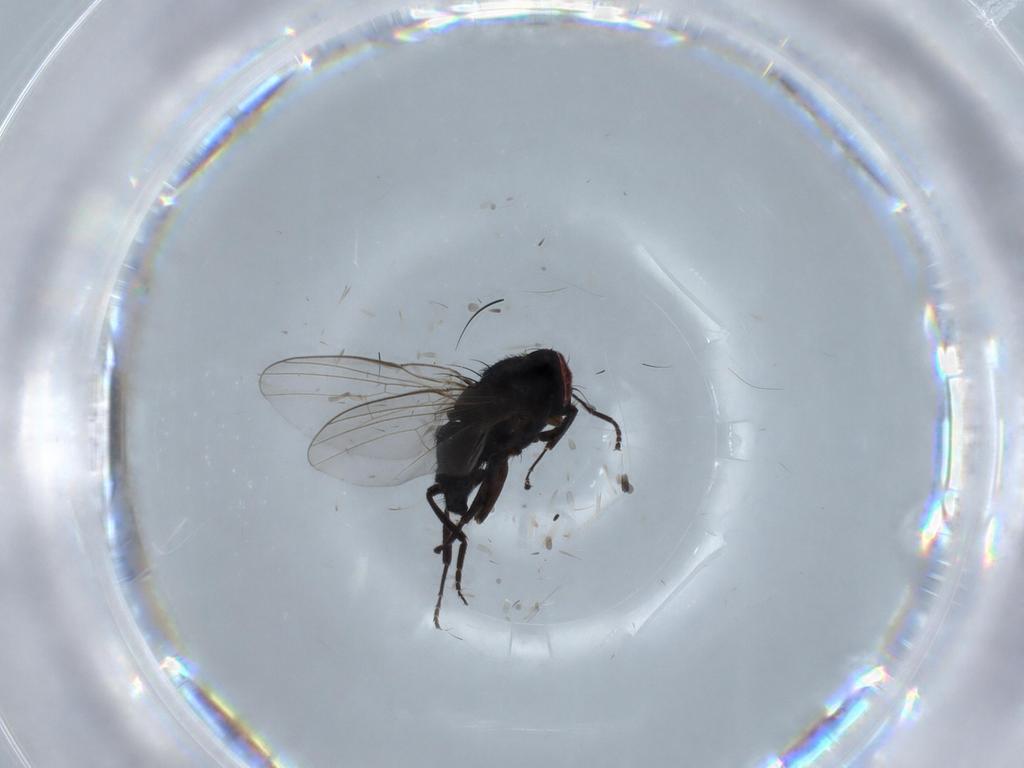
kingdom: Animalia
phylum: Arthropoda
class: Insecta
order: Diptera
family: Agromyzidae
